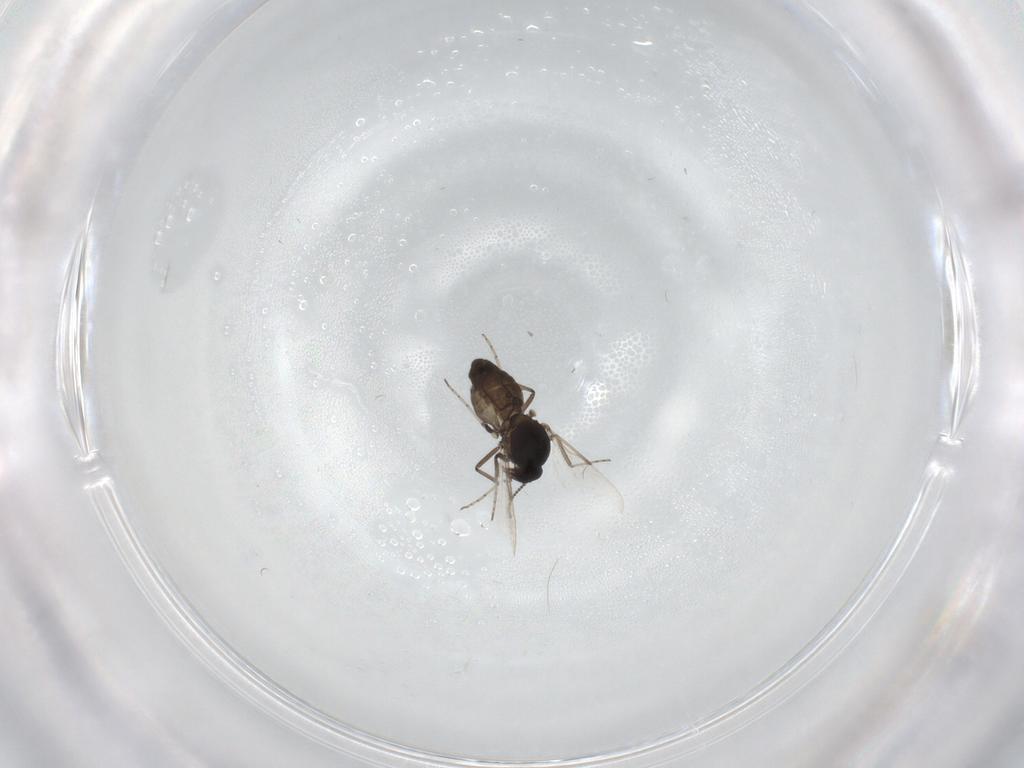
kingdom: Animalia
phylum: Arthropoda
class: Insecta
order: Diptera
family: Ceratopogonidae
